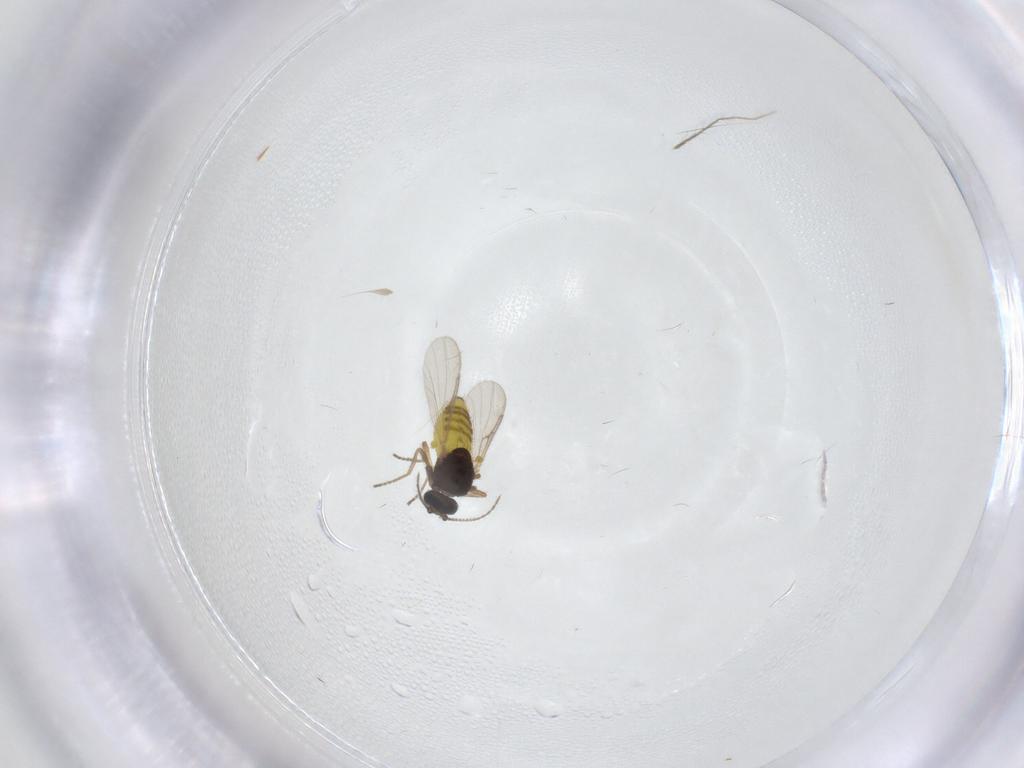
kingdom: Animalia
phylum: Arthropoda
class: Insecta
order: Diptera
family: Ceratopogonidae
